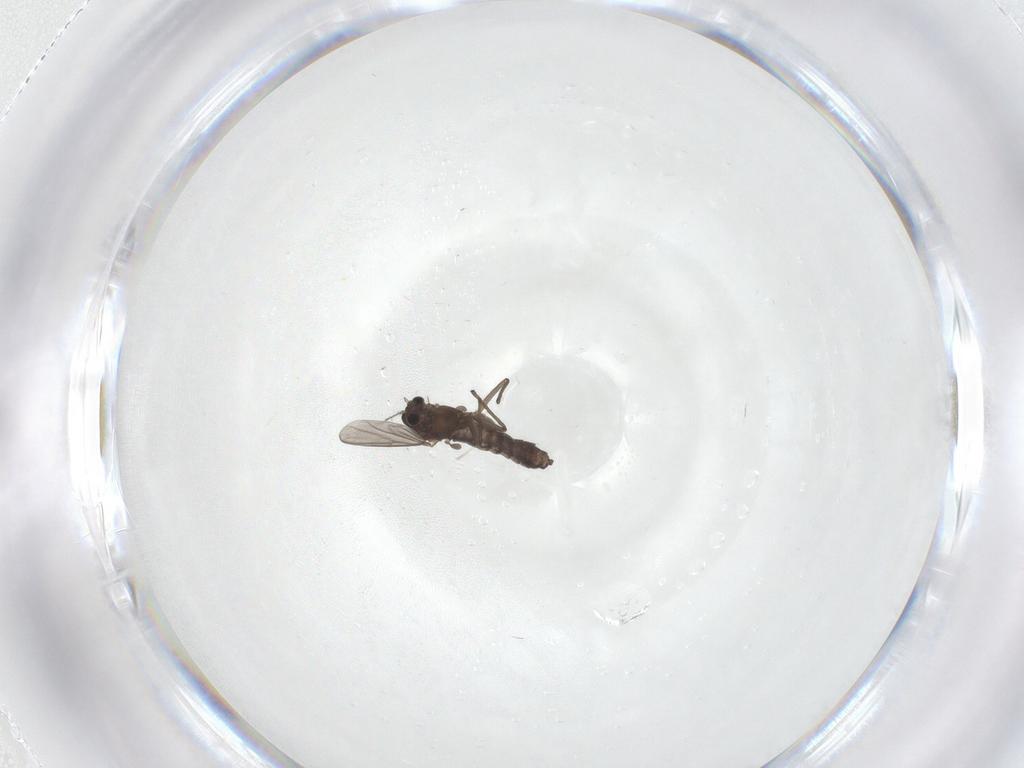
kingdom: Animalia
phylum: Arthropoda
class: Insecta
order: Diptera
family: Chironomidae
